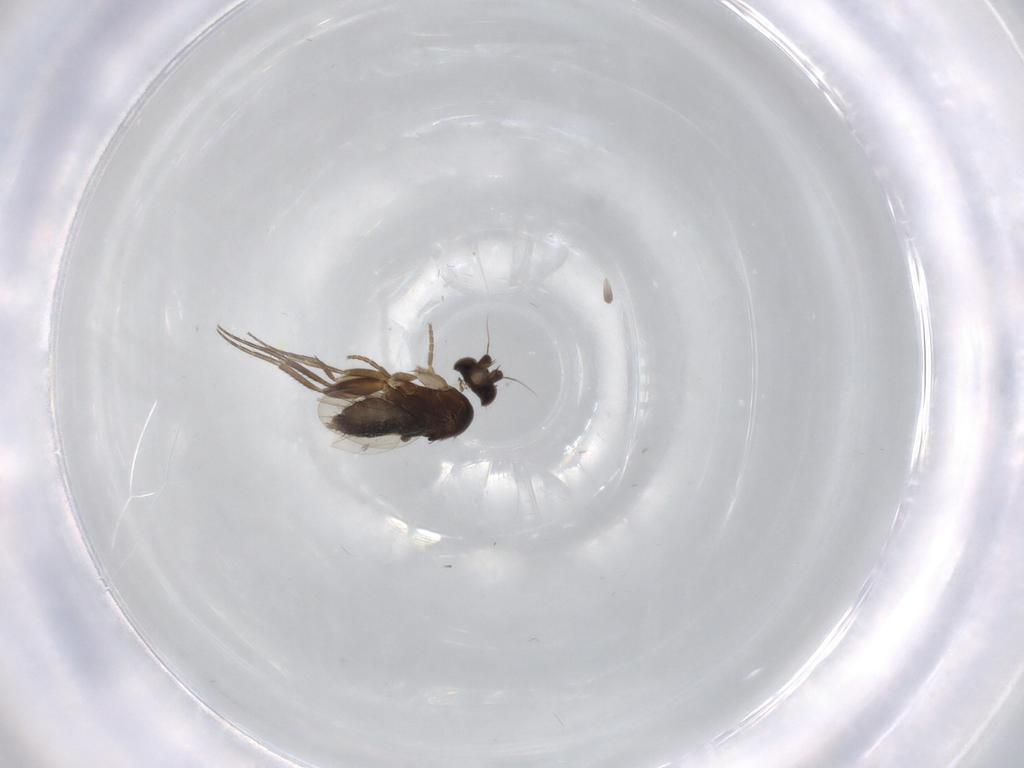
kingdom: Animalia
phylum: Arthropoda
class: Insecta
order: Diptera
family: Phoridae
